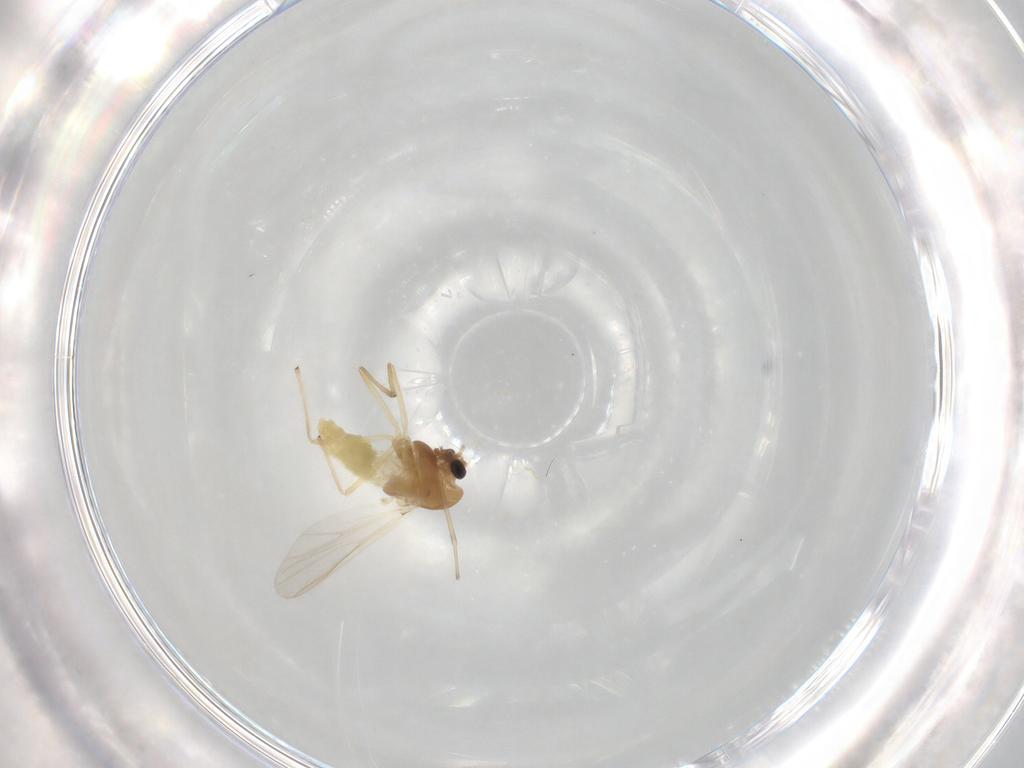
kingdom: Animalia
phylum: Arthropoda
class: Insecta
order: Diptera
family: Chironomidae
